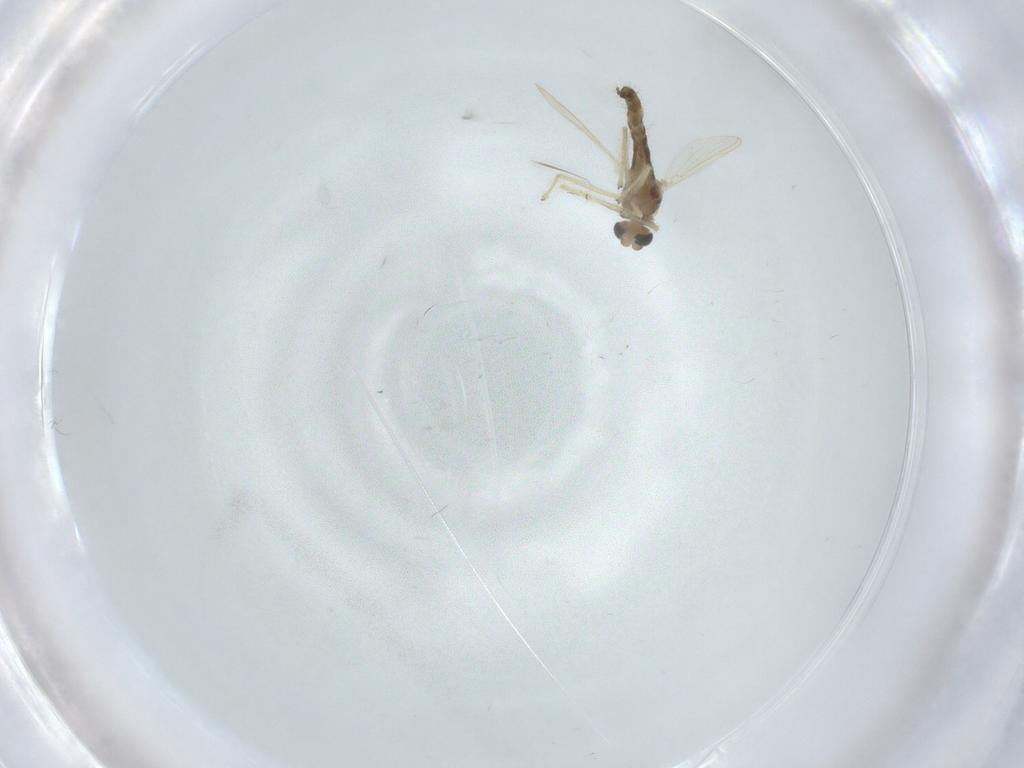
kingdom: Animalia
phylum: Arthropoda
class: Insecta
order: Diptera
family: Chironomidae
